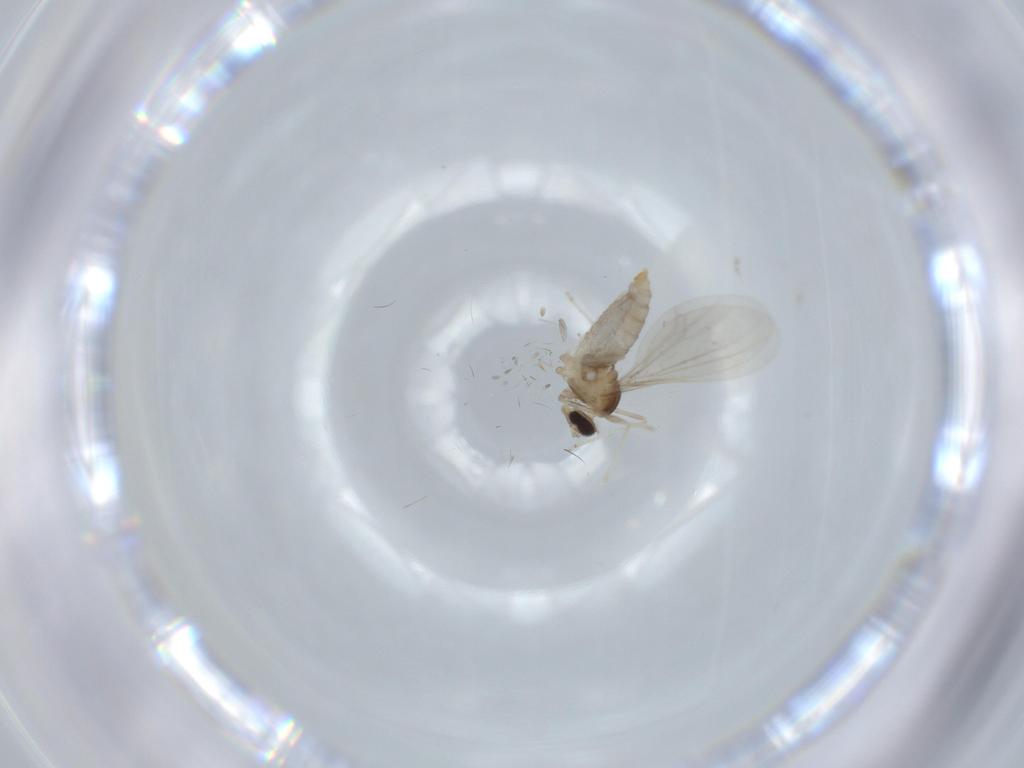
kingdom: Animalia
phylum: Arthropoda
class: Insecta
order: Diptera
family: Cecidomyiidae
